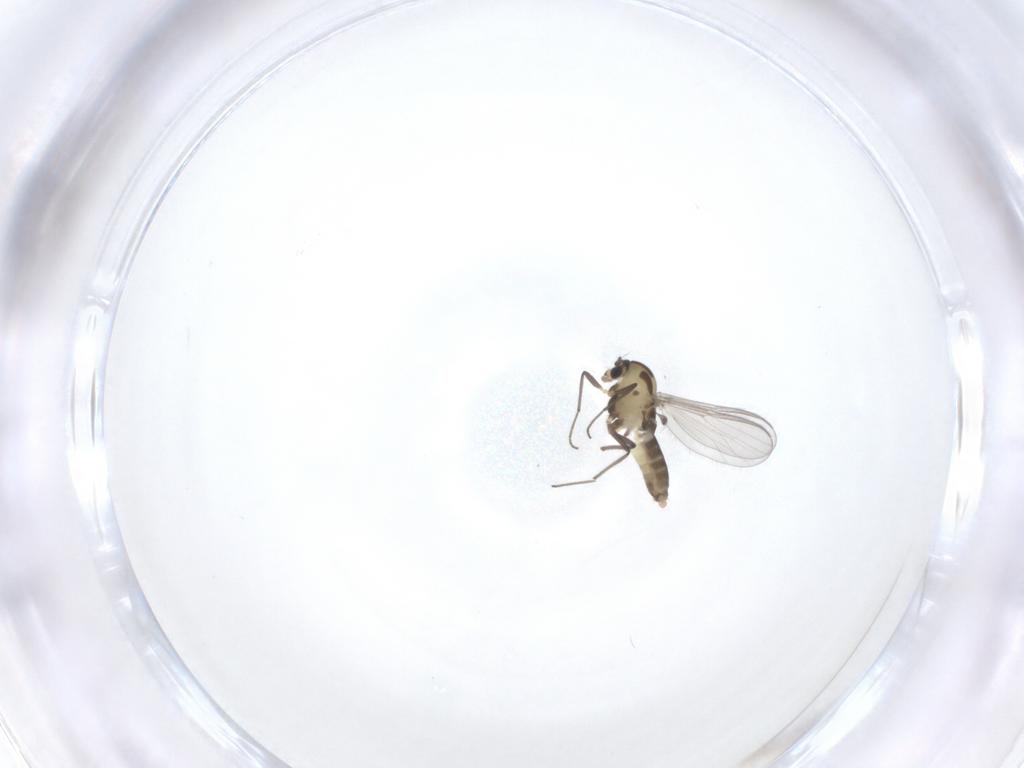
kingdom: Animalia
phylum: Arthropoda
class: Insecta
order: Diptera
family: Chironomidae
